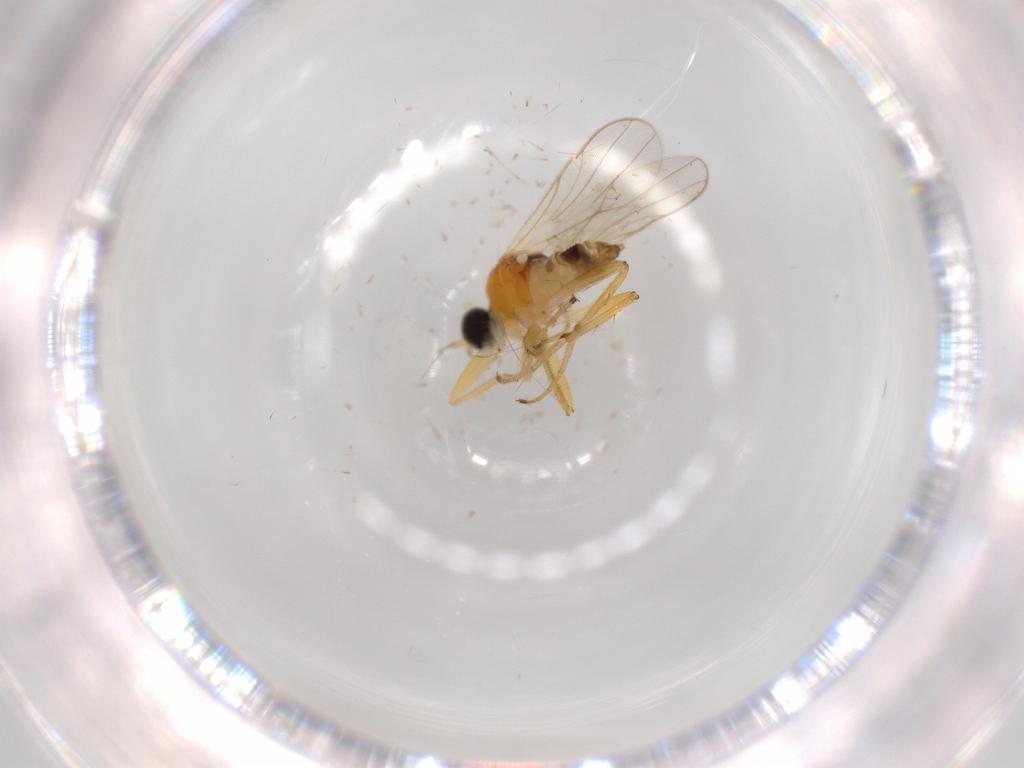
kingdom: Animalia
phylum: Arthropoda
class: Insecta
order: Diptera
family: Hybotidae
